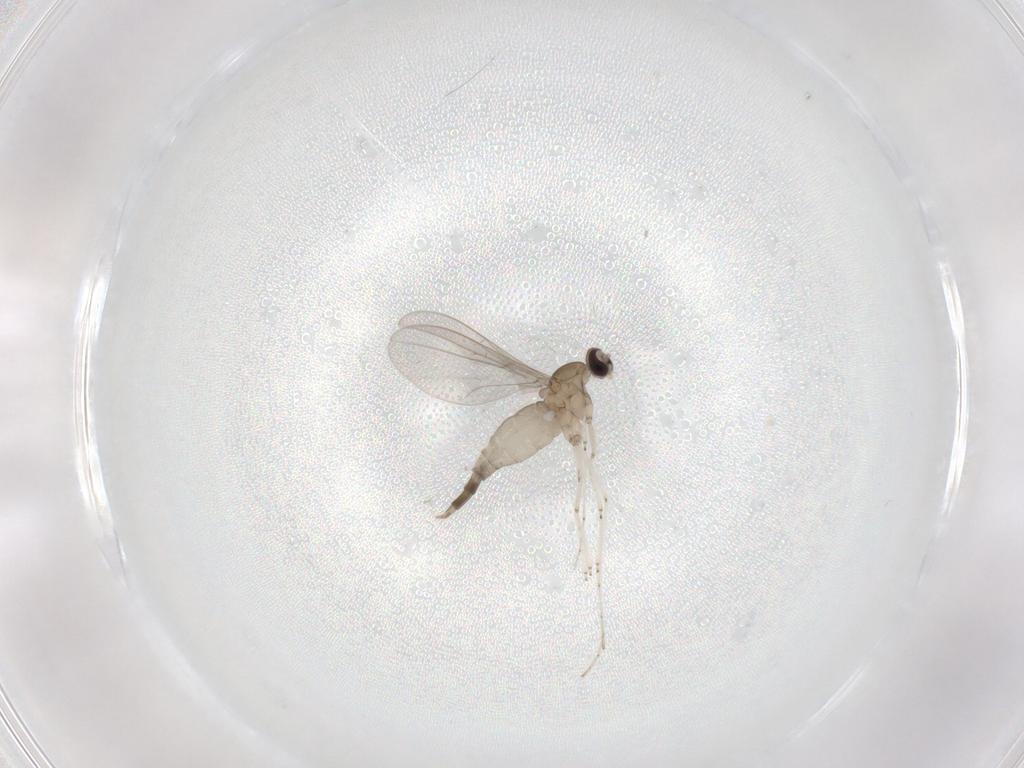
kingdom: Animalia
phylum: Arthropoda
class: Insecta
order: Diptera
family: Cecidomyiidae
